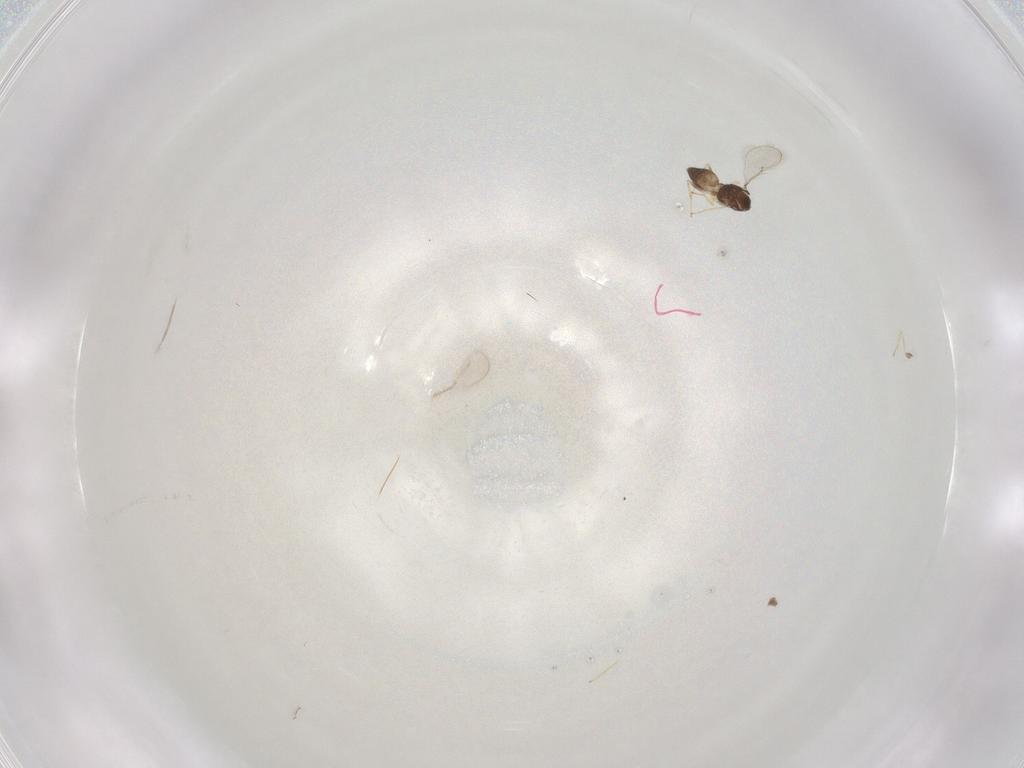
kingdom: Animalia
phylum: Arthropoda
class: Insecta
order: Hymenoptera
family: Eulophidae
